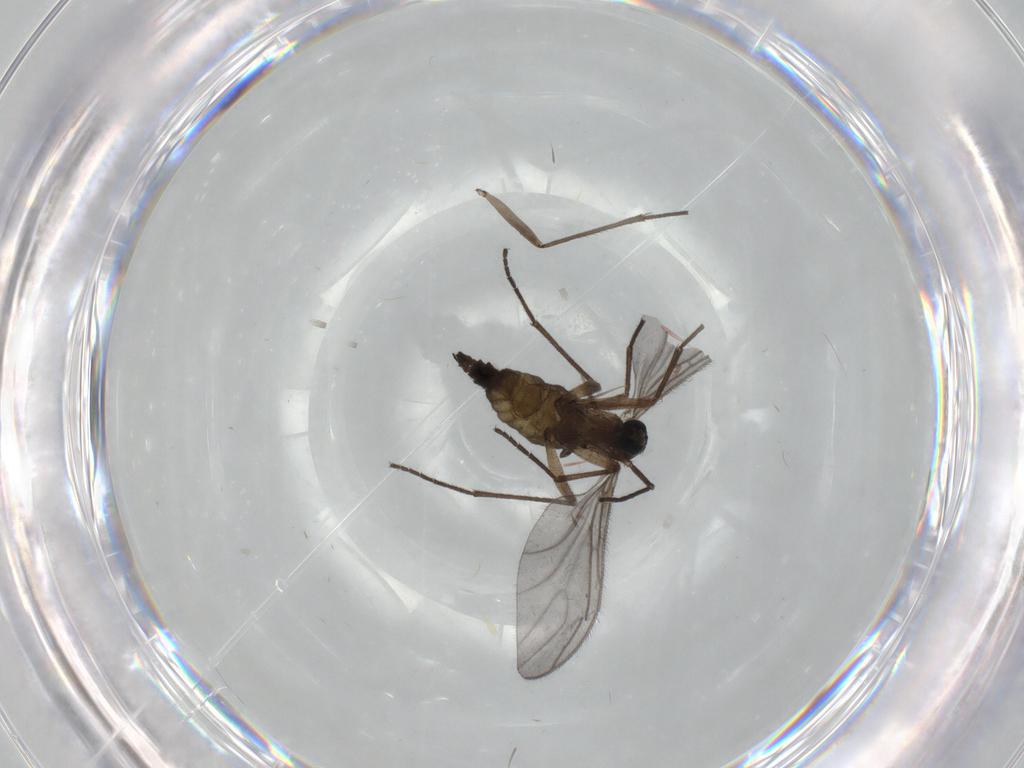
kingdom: Animalia
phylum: Arthropoda
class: Insecta
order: Diptera
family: Sciaridae
